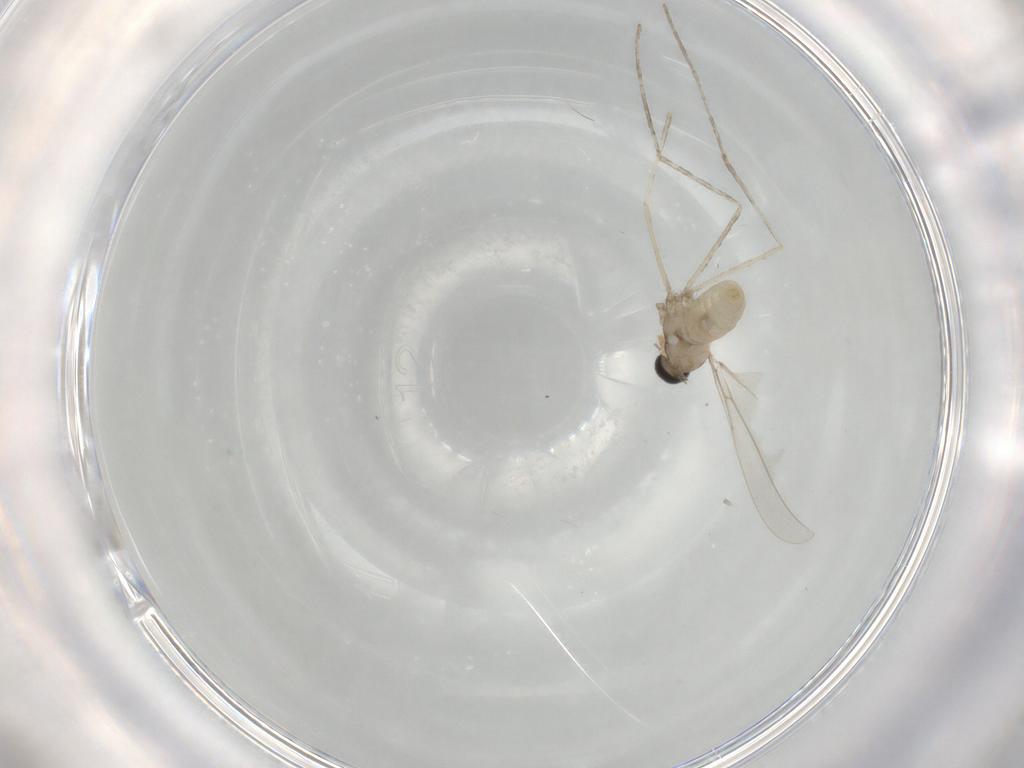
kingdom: Animalia
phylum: Arthropoda
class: Insecta
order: Diptera
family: Cecidomyiidae
